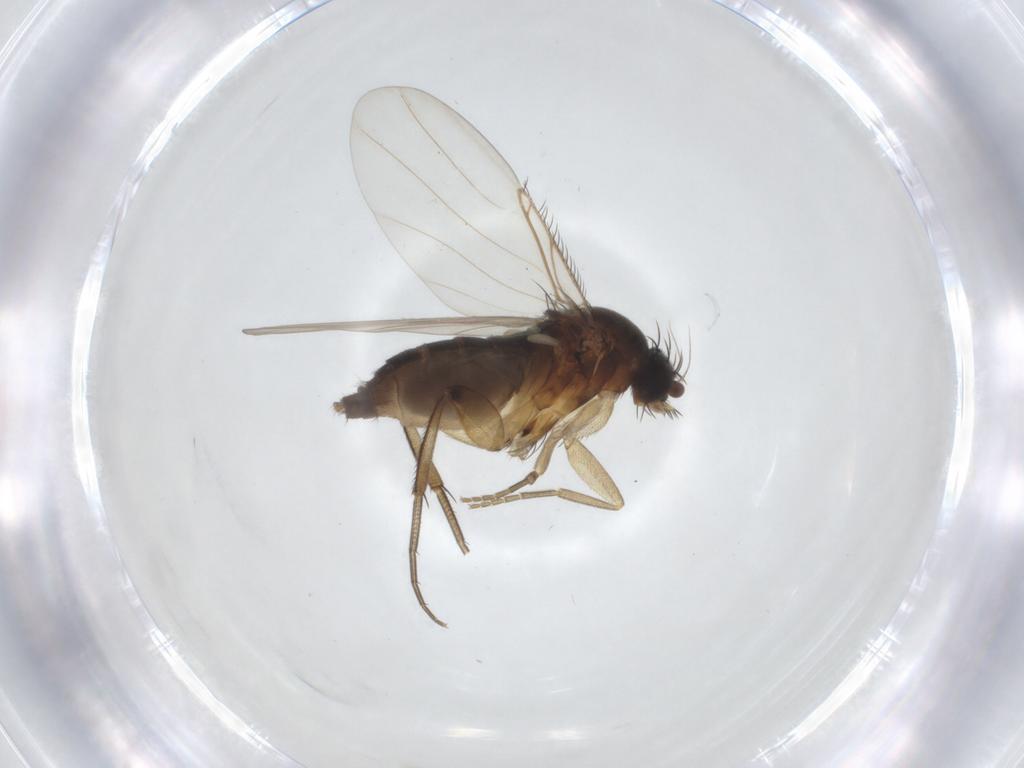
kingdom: Animalia
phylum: Arthropoda
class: Insecta
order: Diptera
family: Phoridae
